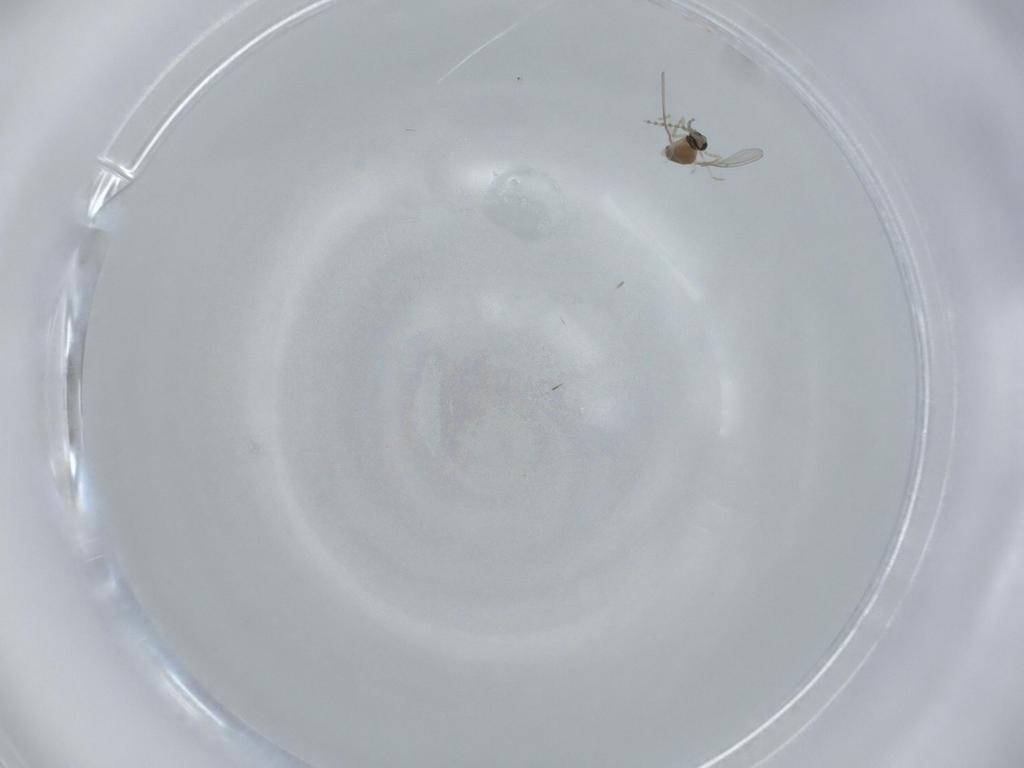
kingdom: Animalia
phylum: Arthropoda
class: Insecta
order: Diptera
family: Cecidomyiidae
